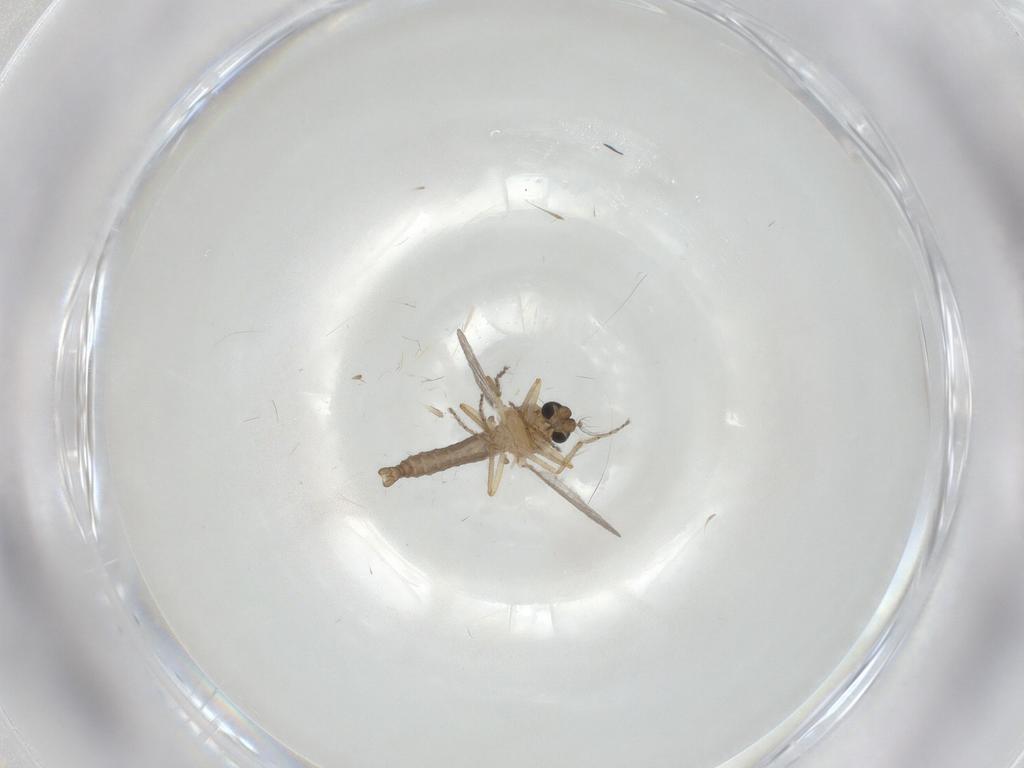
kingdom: Animalia
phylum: Arthropoda
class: Insecta
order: Diptera
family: Ceratopogonidae
